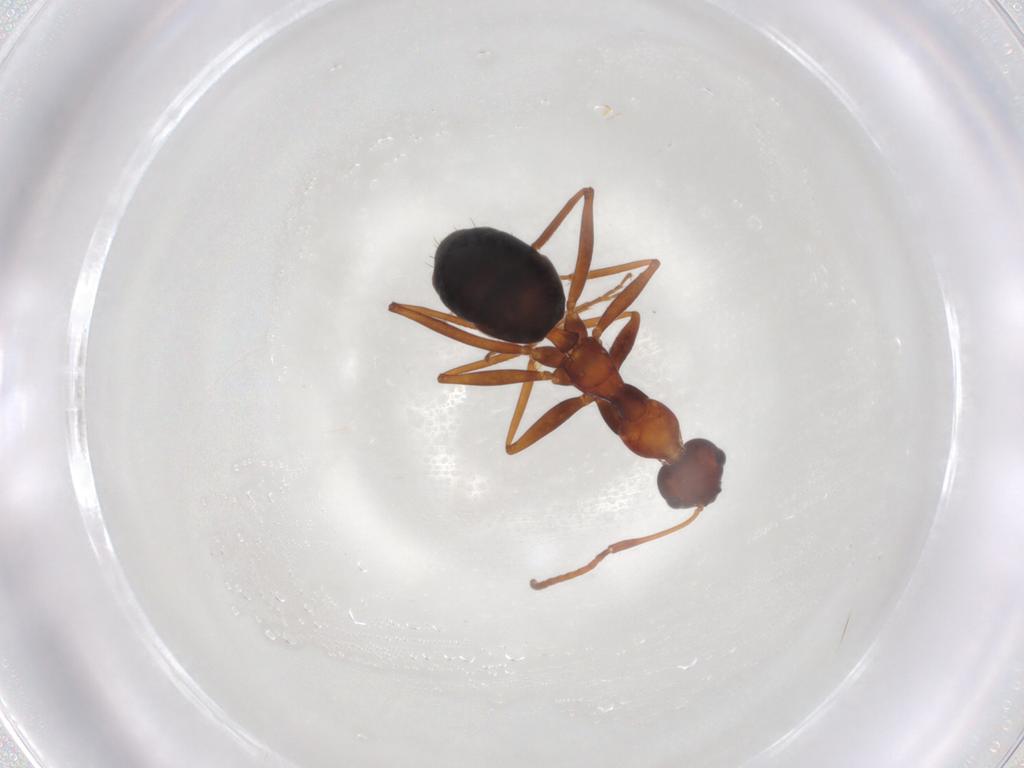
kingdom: Animalia
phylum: Arthropoda
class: Insecta
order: Hymenoptera
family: Formicidae
